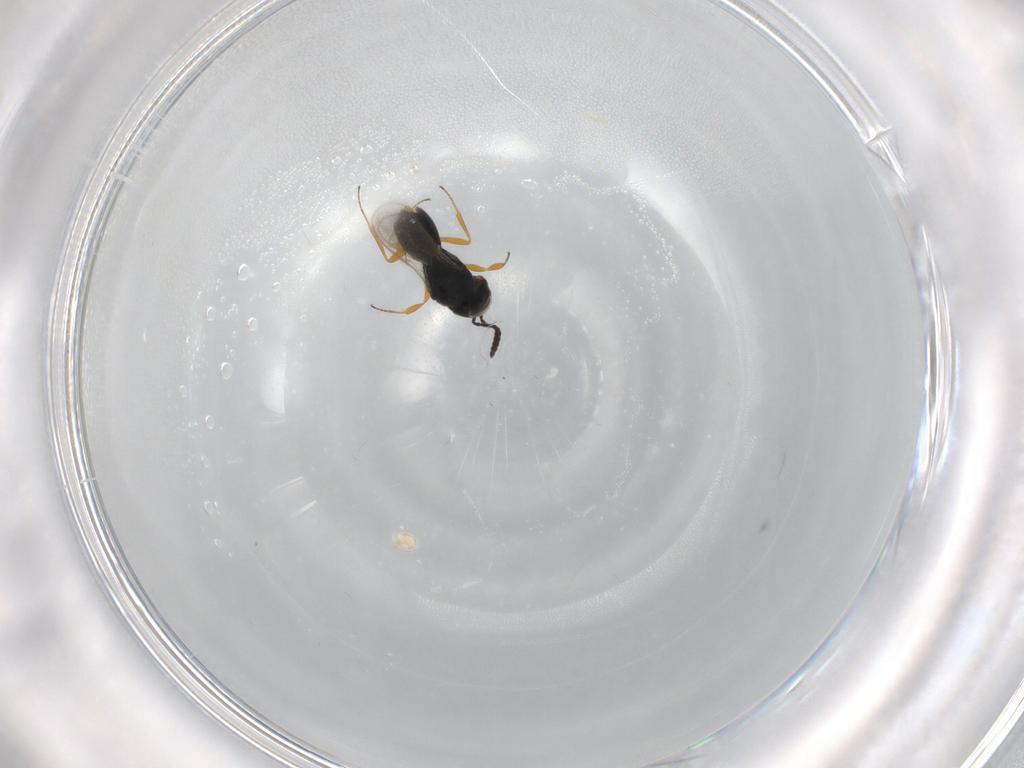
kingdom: Animalia
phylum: Arthropoda
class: Insecta
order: Hymenoptera
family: Scelionidae
